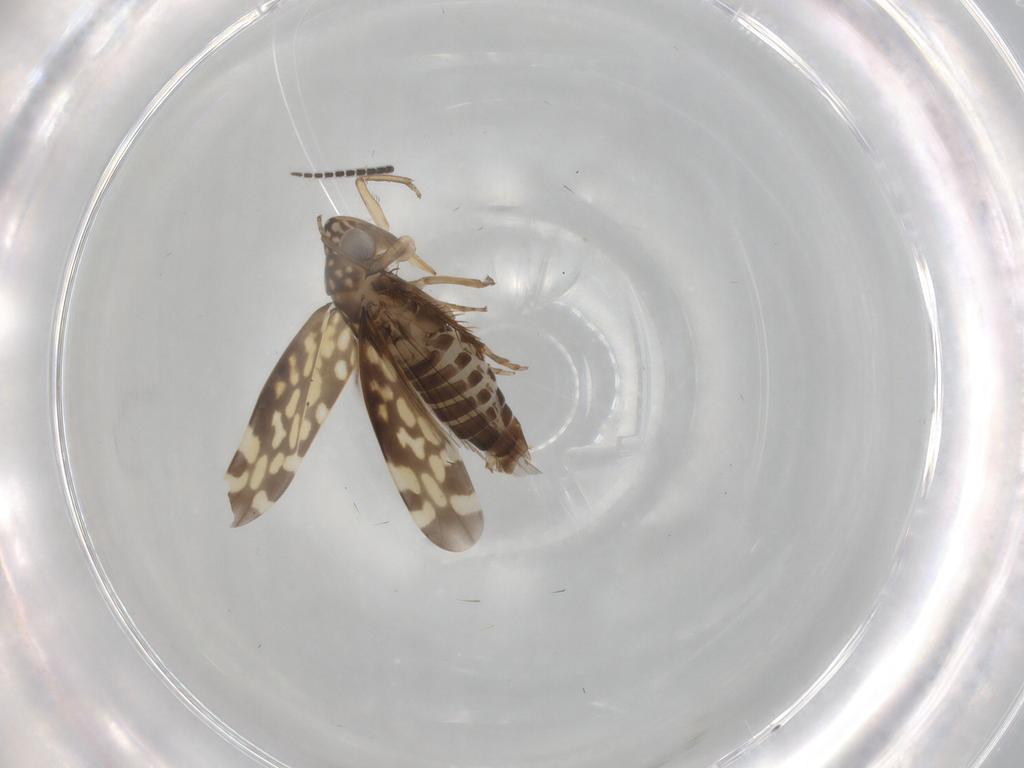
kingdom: Animalia
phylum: Arthropoda
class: Insecta
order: Hemiptera
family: Cicadellidae
